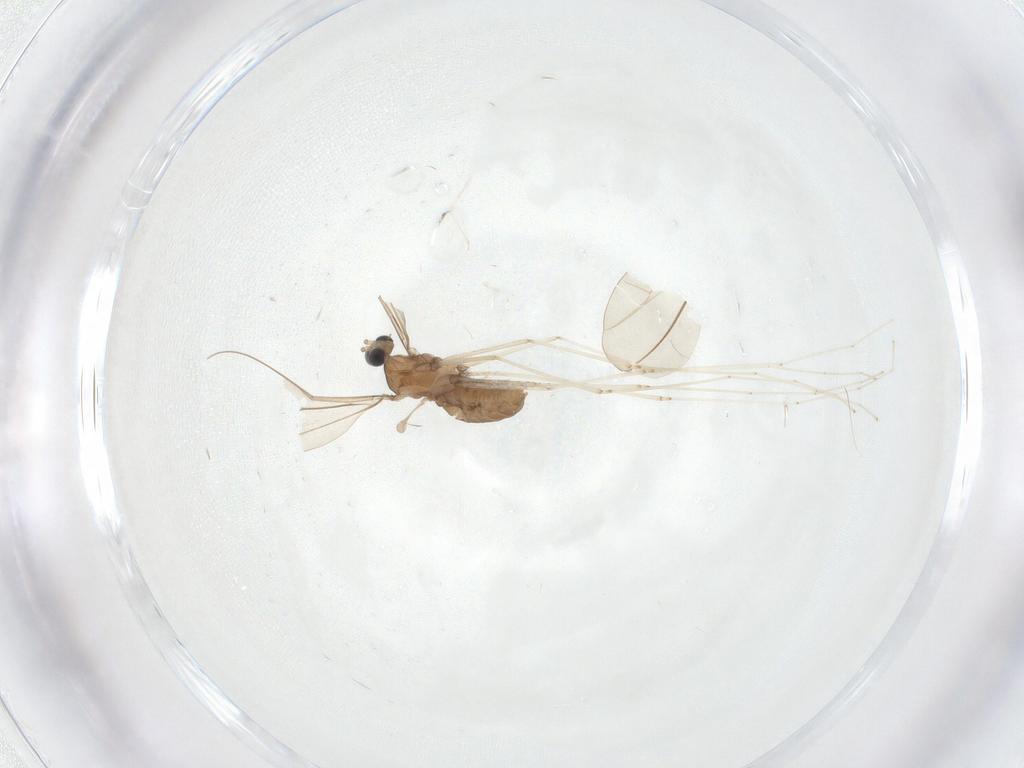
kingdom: Animalia
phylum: Arthropoda
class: Insecta
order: Diptera
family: Cecidomyiidae
